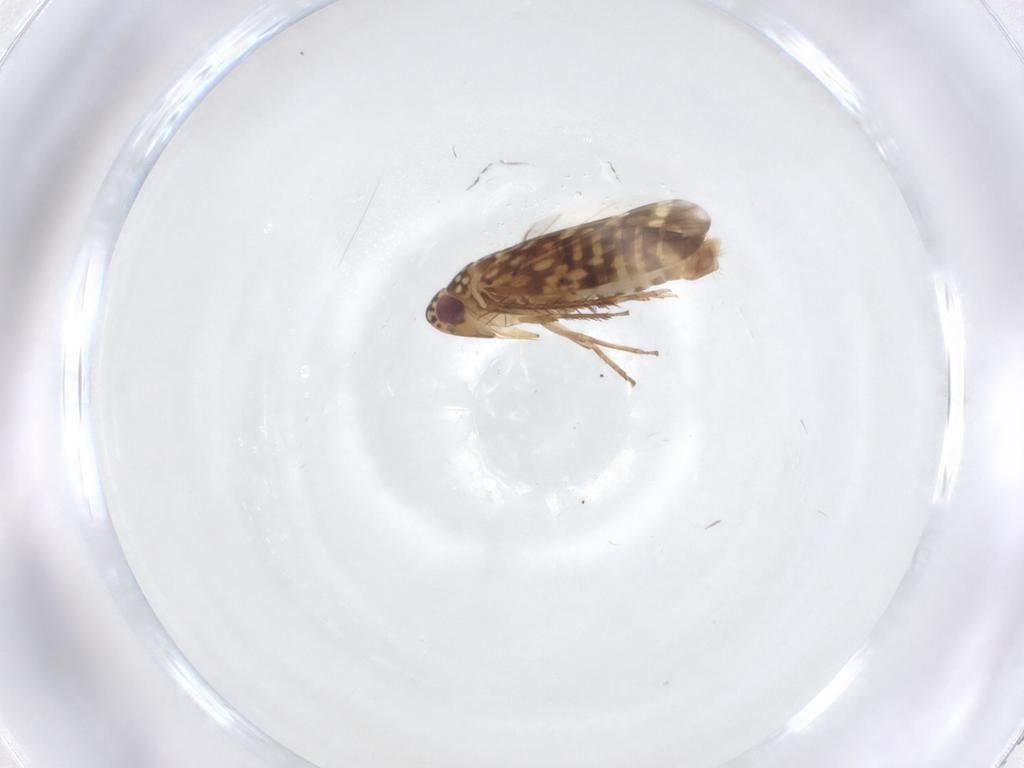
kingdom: Animalia
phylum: Arthropoda
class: Insecta
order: Hemiptera
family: Cicadellidae
